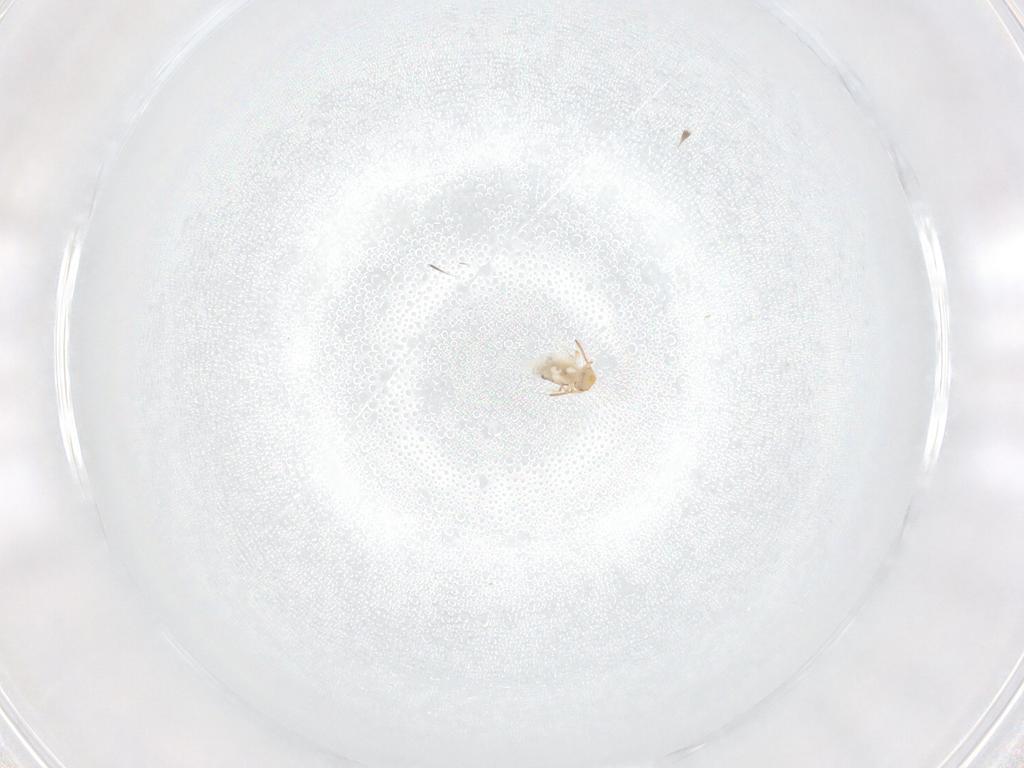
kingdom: Animalia
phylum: Arthropoda
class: Collembola
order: Symphypleona
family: Bourletiellidae
